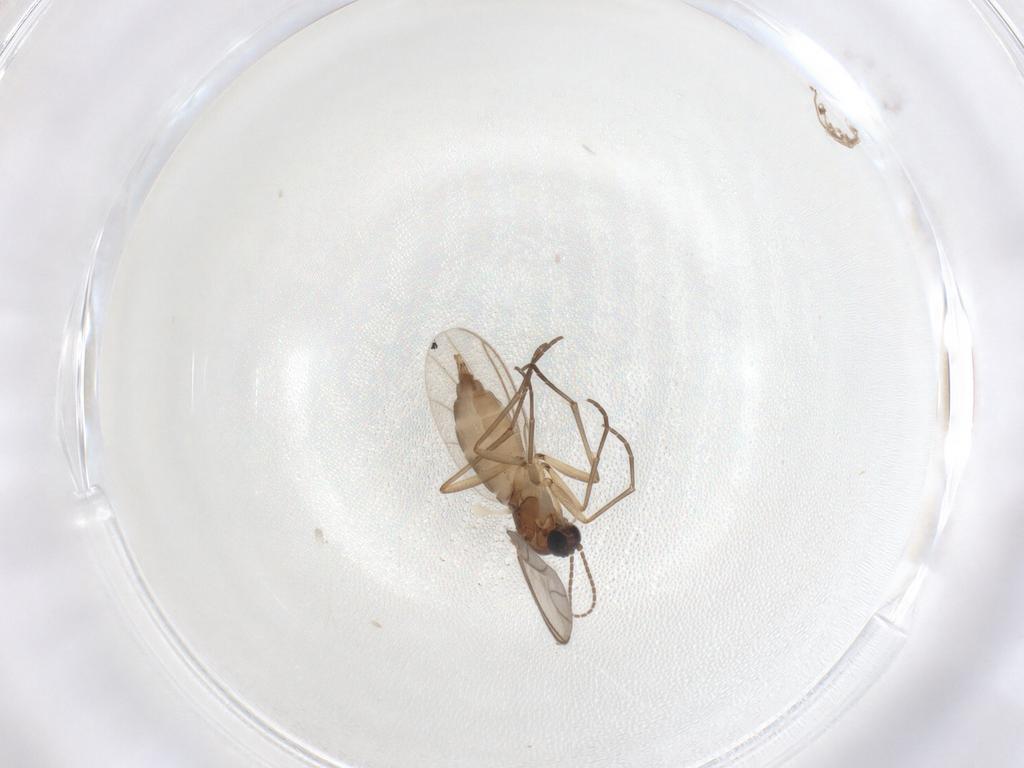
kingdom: Animalia
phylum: Arthropoda
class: Insecta
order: Diptera
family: Sciaridae
